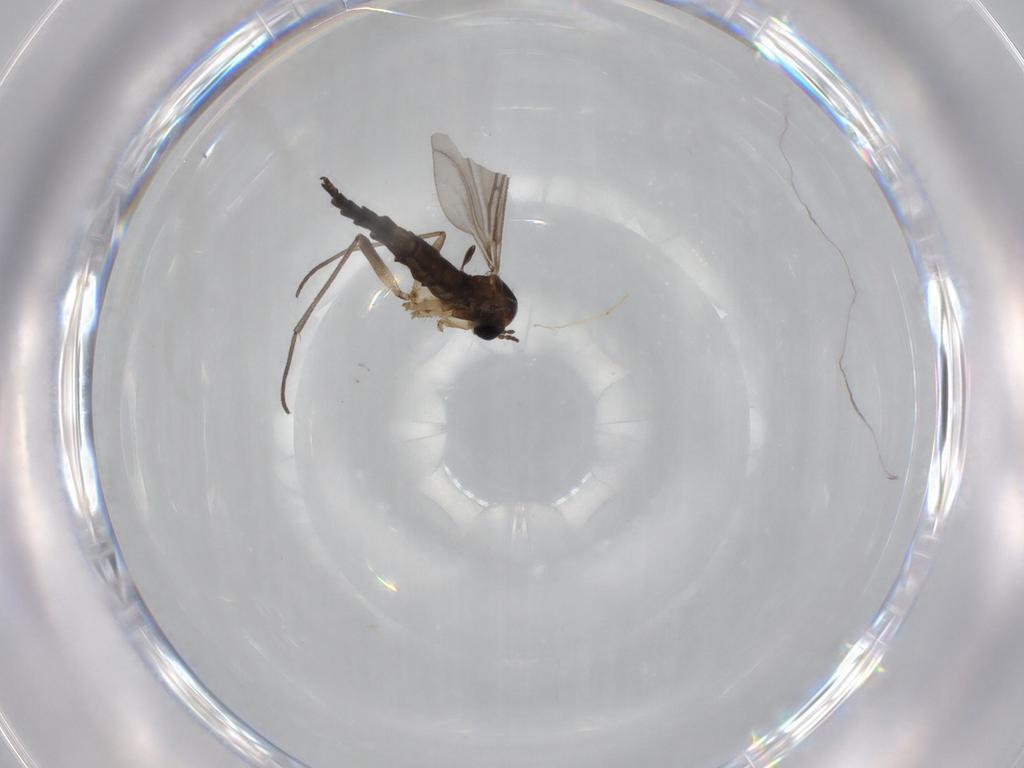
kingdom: Animalia
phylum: Arthropoda
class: Insecta
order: Diptera
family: Sciaridae
